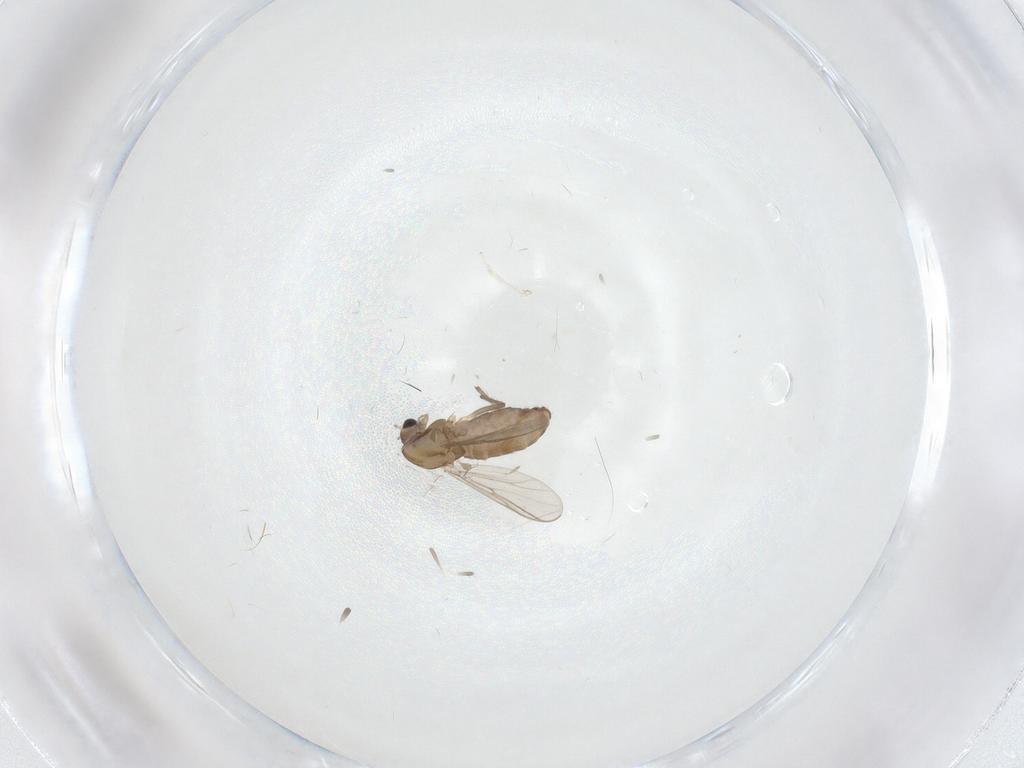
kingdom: Animalia
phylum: Arthropoda
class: Insecta
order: Diptera
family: Chironomidae
